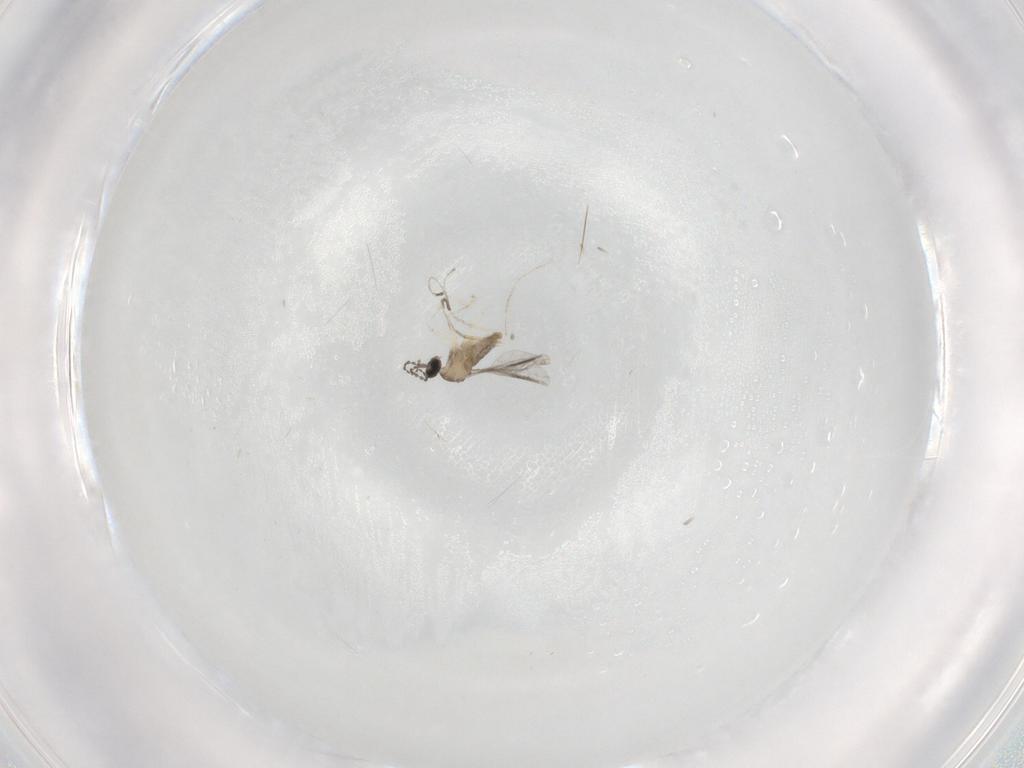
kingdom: Animalia
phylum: Arthropoda
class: Insecta
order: Diptera
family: Cecidomyiidae
